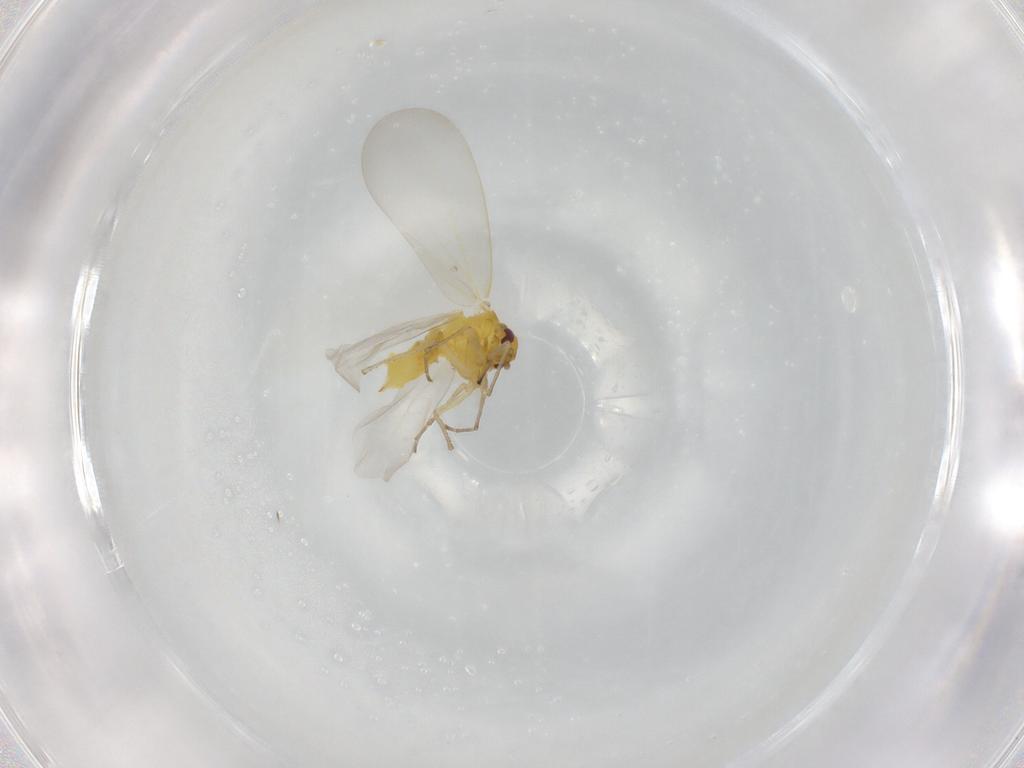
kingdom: Animalia
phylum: Arthropoda
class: Insecta
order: Hemiptera
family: Aleyrodidae
